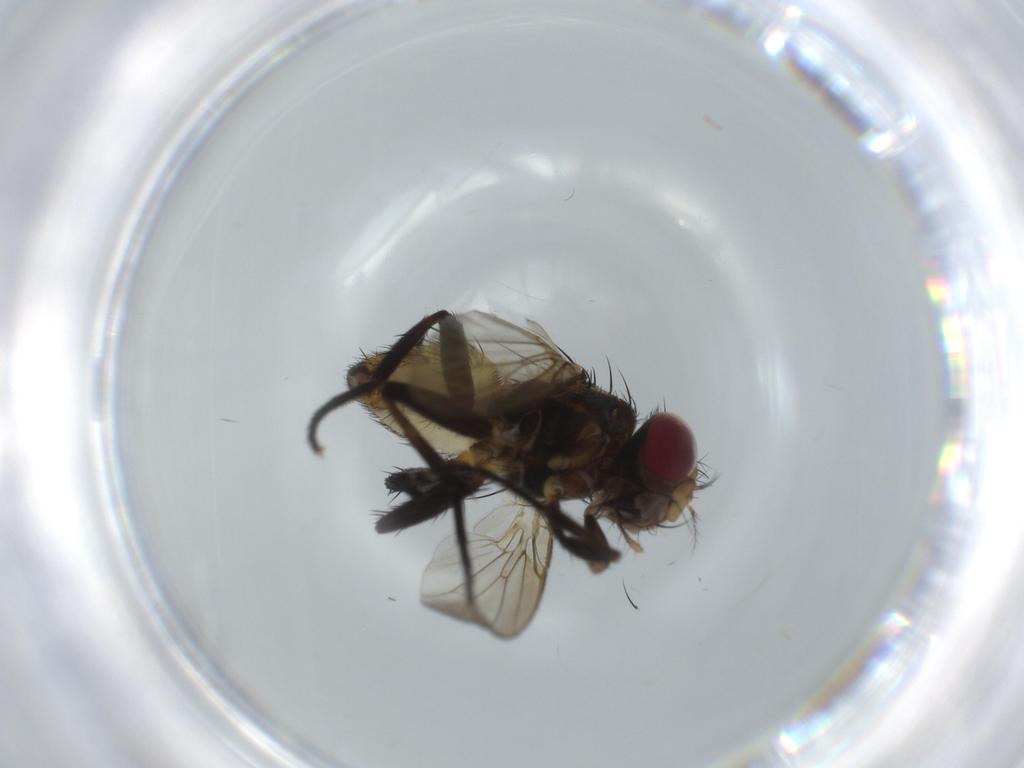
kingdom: Animalia
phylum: Arthropoda
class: Insecta
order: Diptera
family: Anthomyiidae
